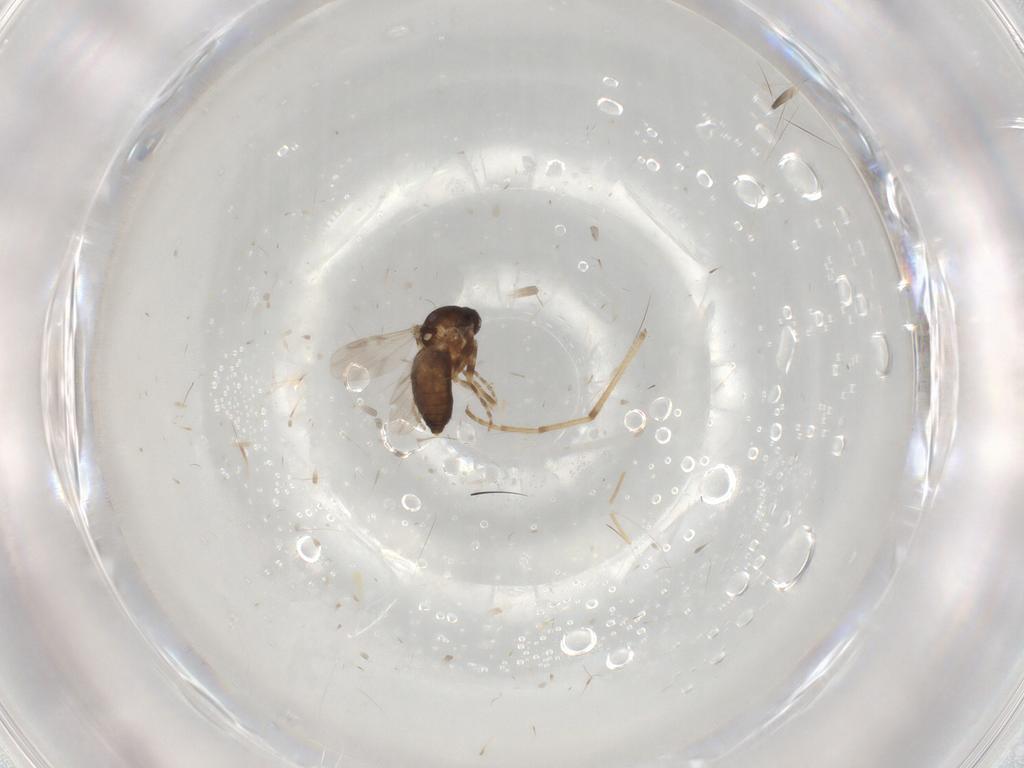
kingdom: Animalia
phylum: Arthropoda
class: Insecta
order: Diptera
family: Chironomidae
